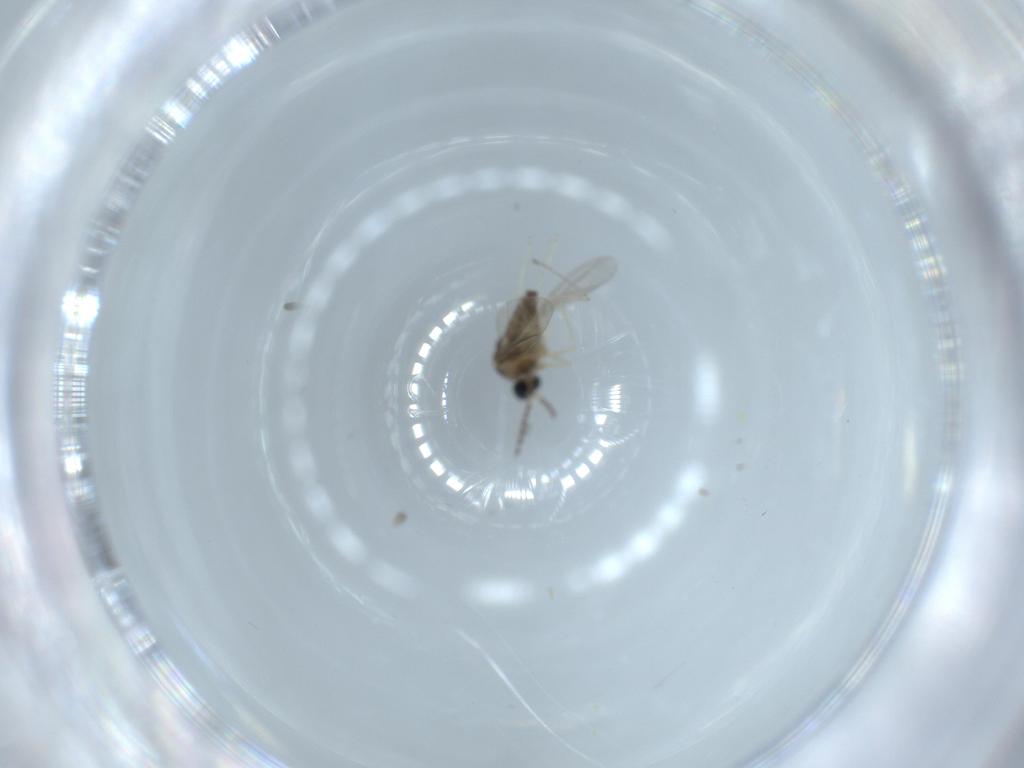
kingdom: Animalia
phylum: Arthropoda
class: Insecta
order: Diptera
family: Cecidomyiidae
